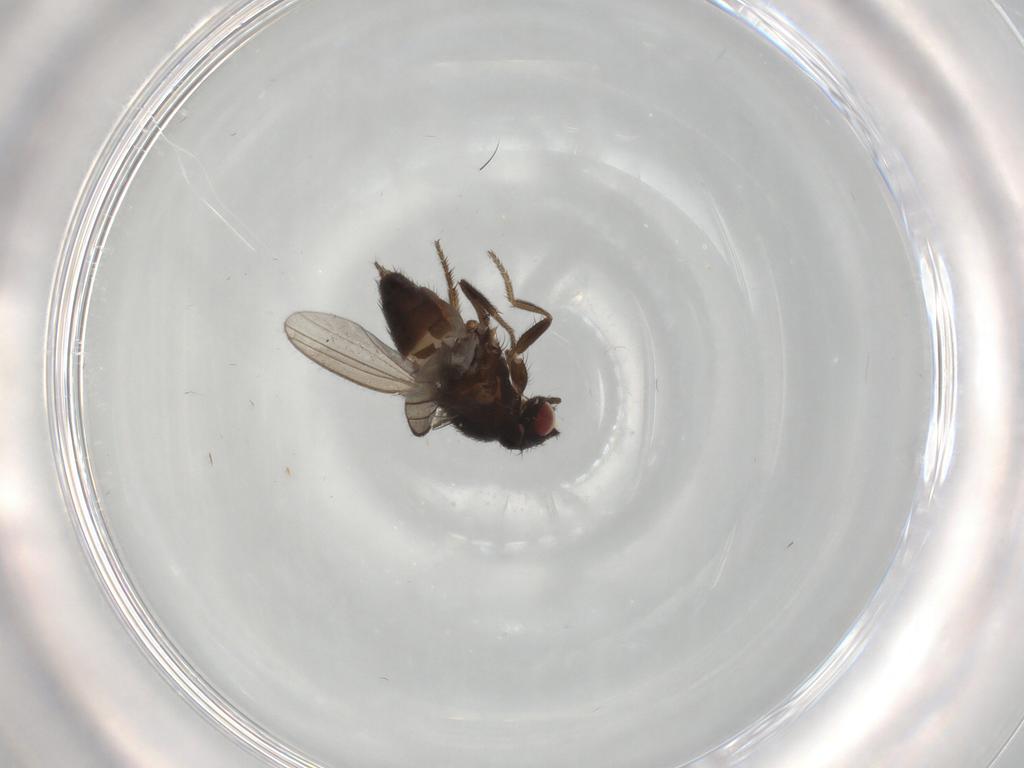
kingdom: Animalia
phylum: Arthropoda
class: Insecta
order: Diptera
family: Milichiidae
